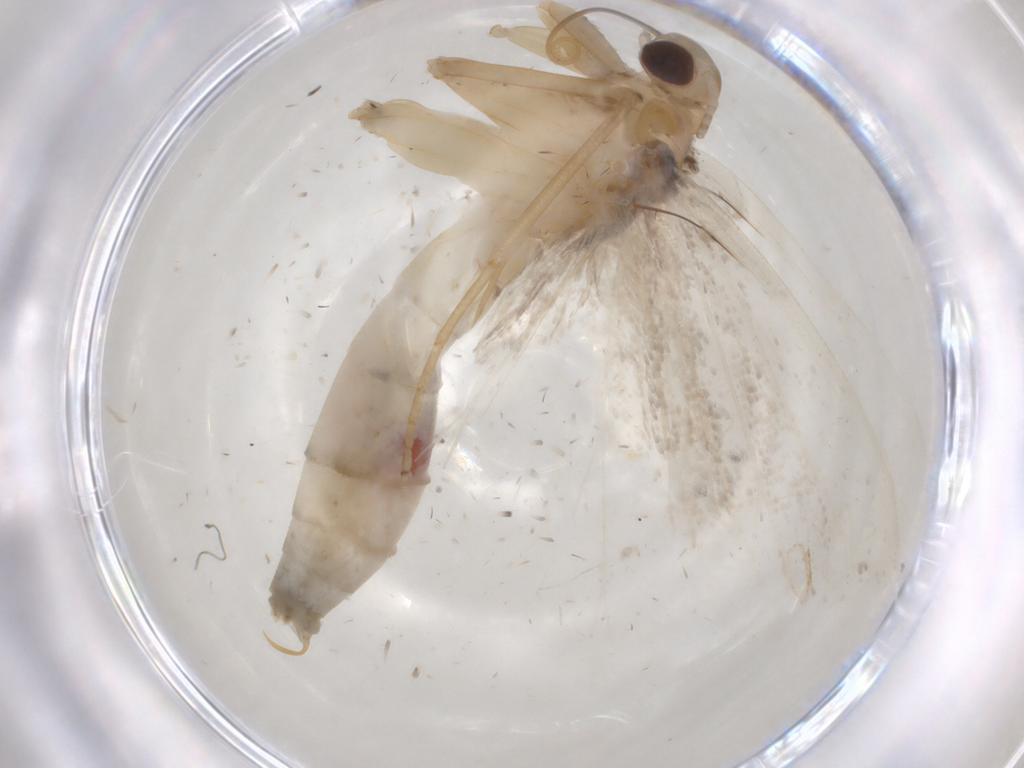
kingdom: Animalia
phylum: Arthropoda
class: Insecta
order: Lepidoptera
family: Erebidae
